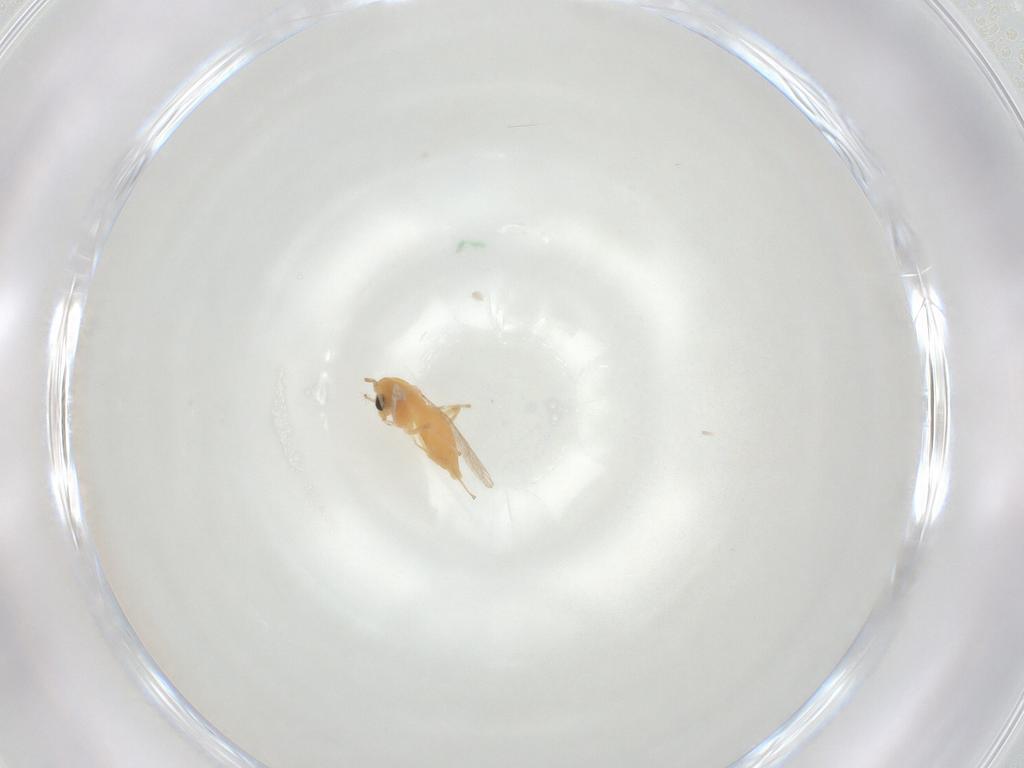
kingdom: Animalia
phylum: Arthropoda
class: Insecta
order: Diptera
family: Chironomidae
